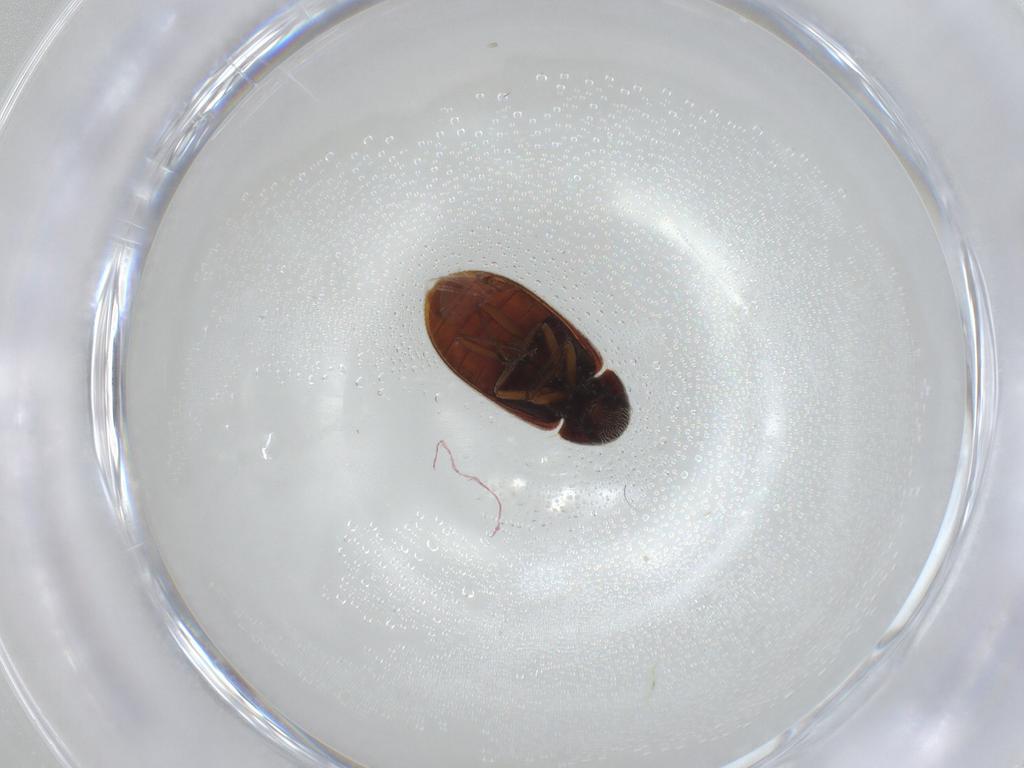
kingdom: Animalia
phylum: Arthropoda
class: Insecta
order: Coleoptera
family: Rhadalidae
